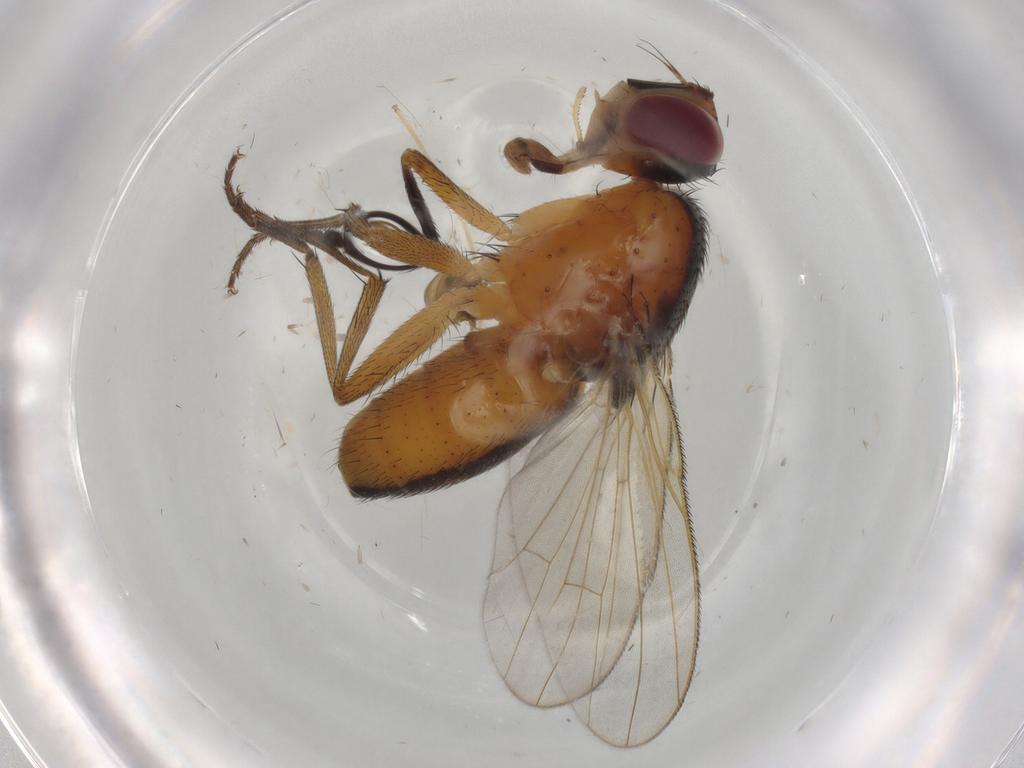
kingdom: Animalia
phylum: Arthropoda
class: Insecta
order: Diptera
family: Muscidae
